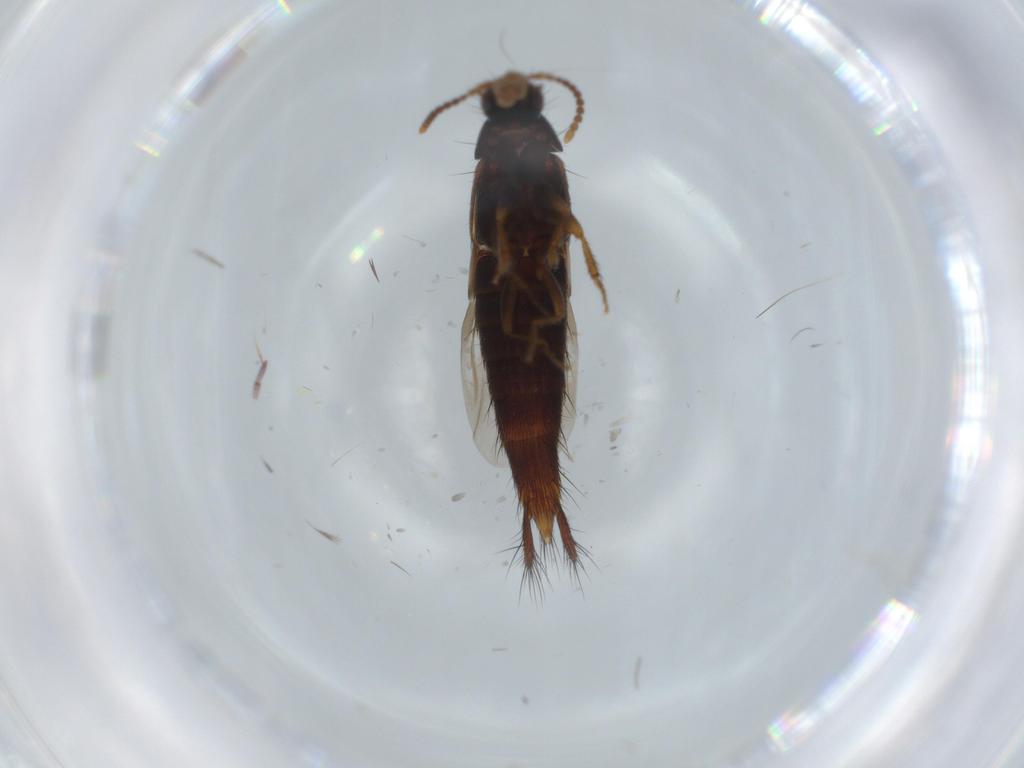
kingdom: Animalia
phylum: Arthropoda
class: Insecta
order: Coleoptera
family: Staphylinidae
